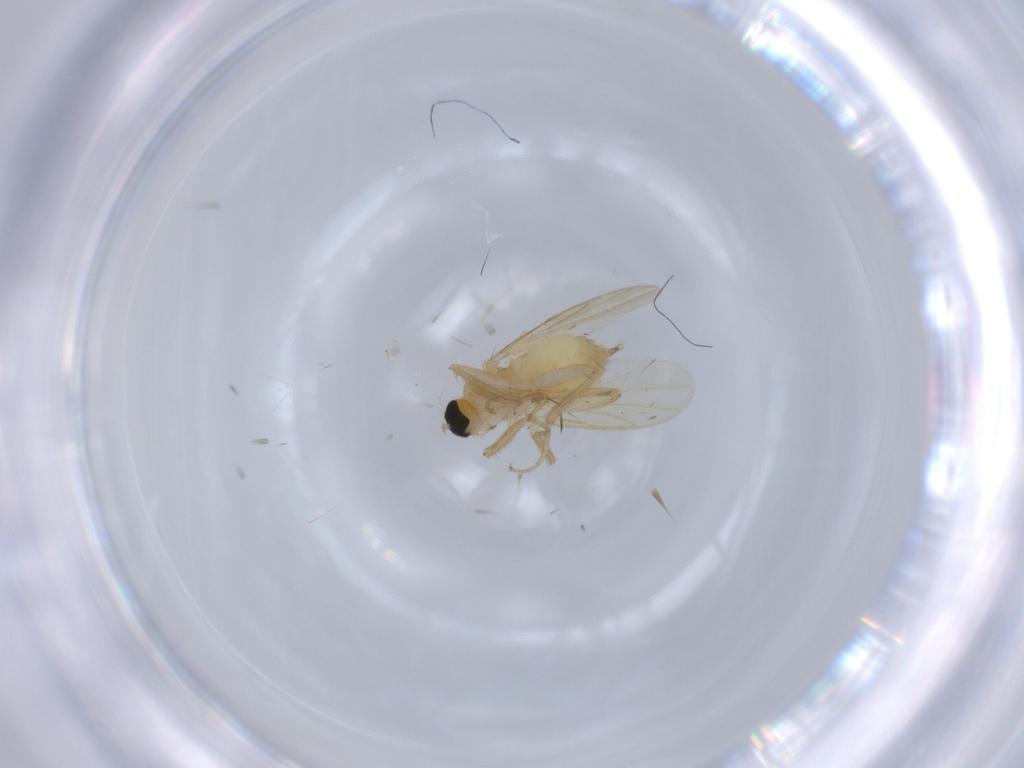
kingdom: Animalia
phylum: Arthropoda
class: Insecta
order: Diptera
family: Hybotidae
